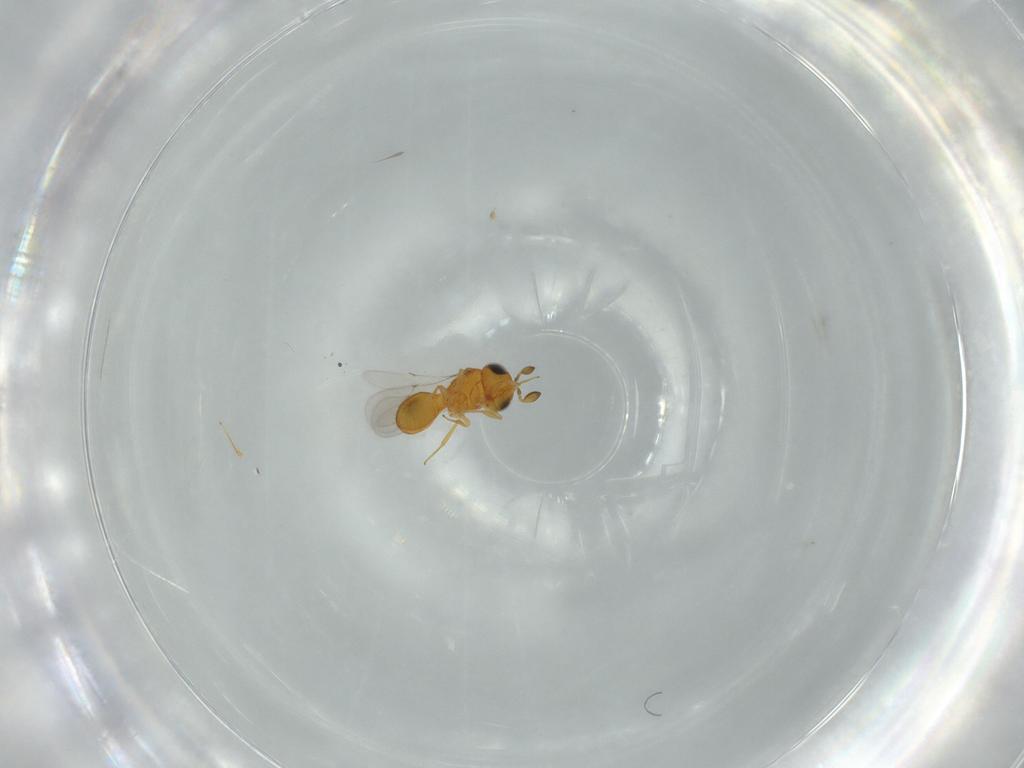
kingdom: Animalia
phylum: Arthropoda
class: Insecta
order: Hymenoptera
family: Scelionidae
